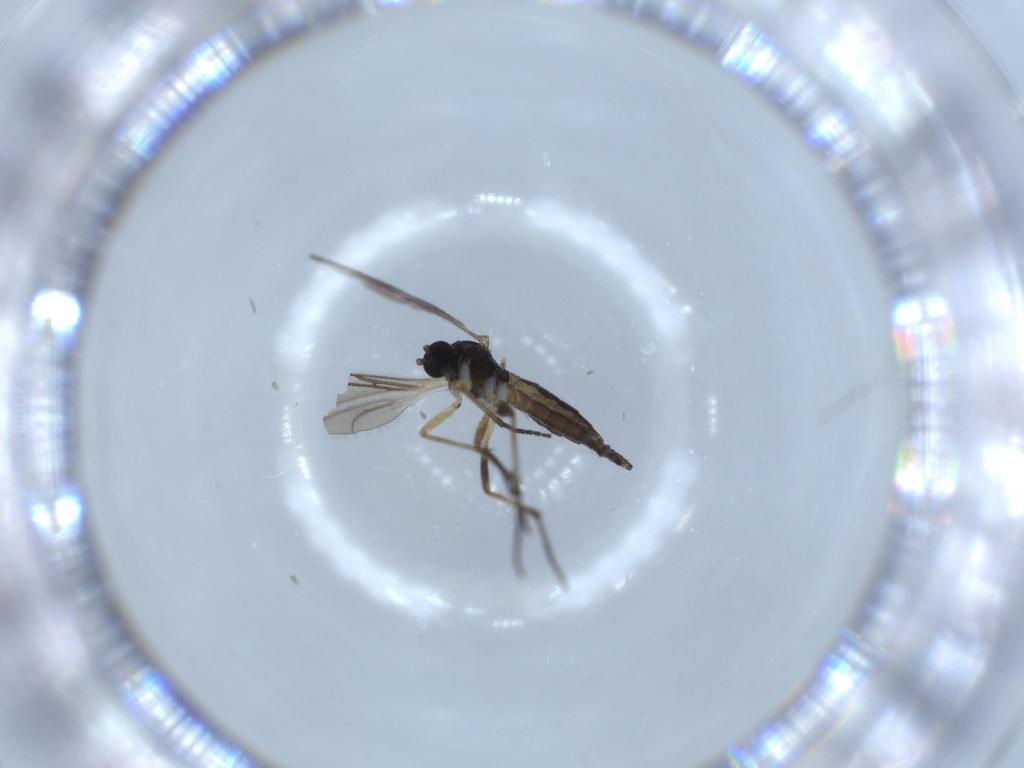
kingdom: Animalia
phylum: Arthropoda
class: Insecta
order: Diptera
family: Sciaridae
